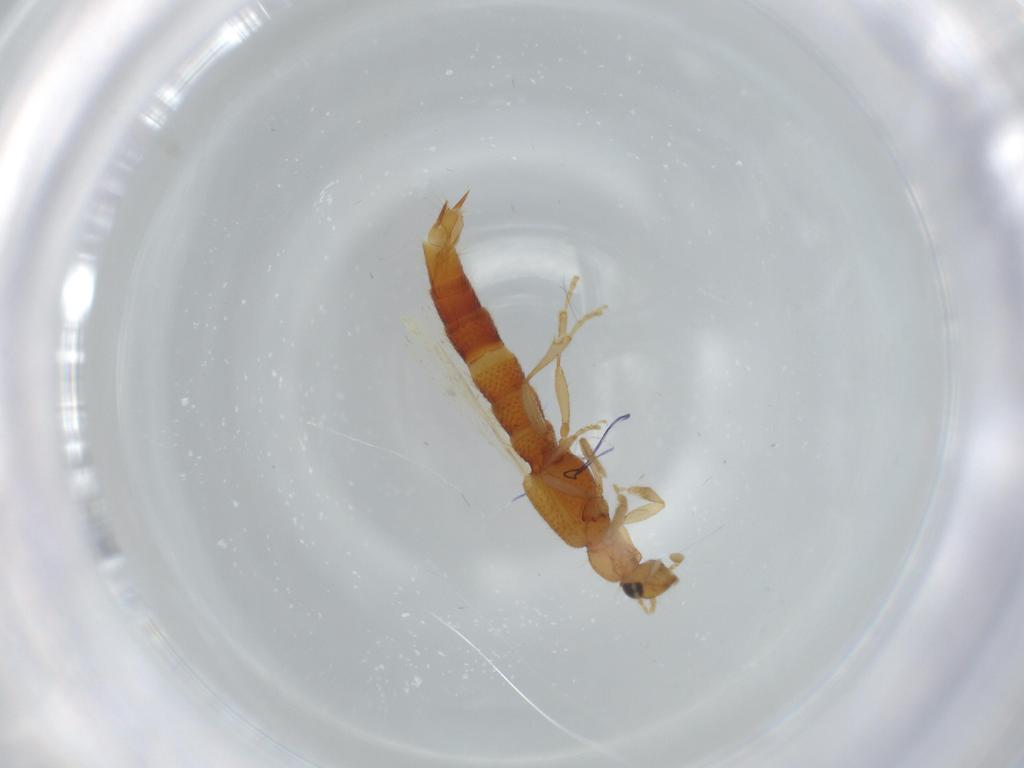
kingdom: Animalia
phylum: Arthropoda
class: Insecta
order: Coleoptera
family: Staphylinidae
